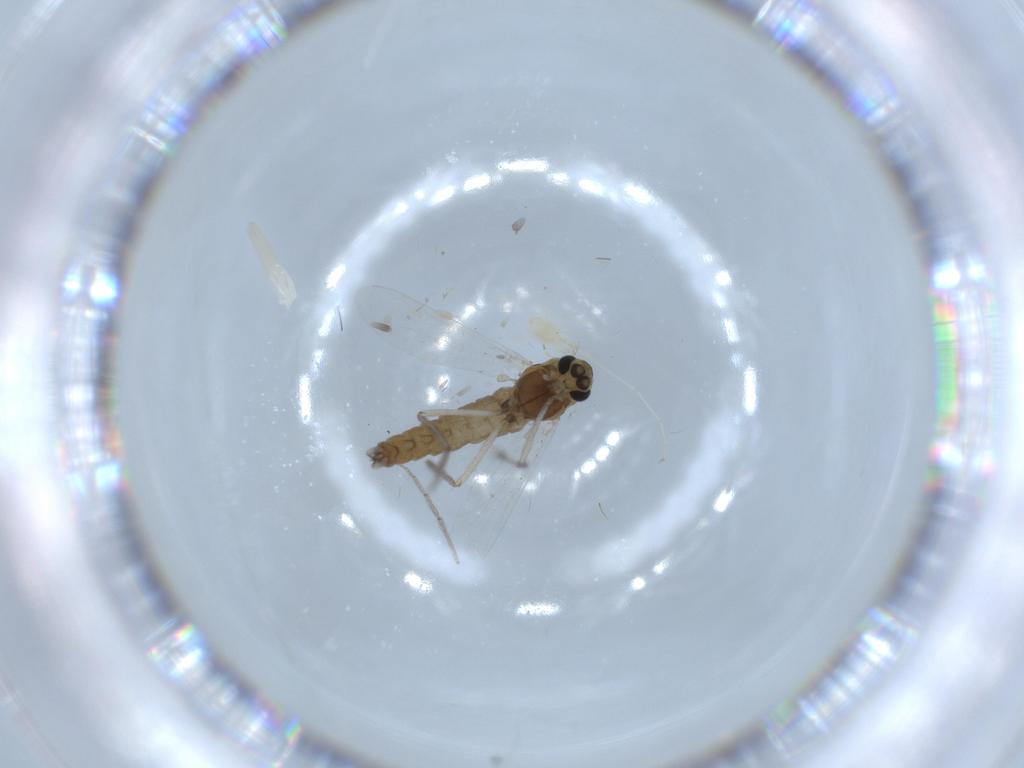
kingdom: Animalia
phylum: Arthropoda
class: Insecta
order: Diptera
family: Chironomidae
